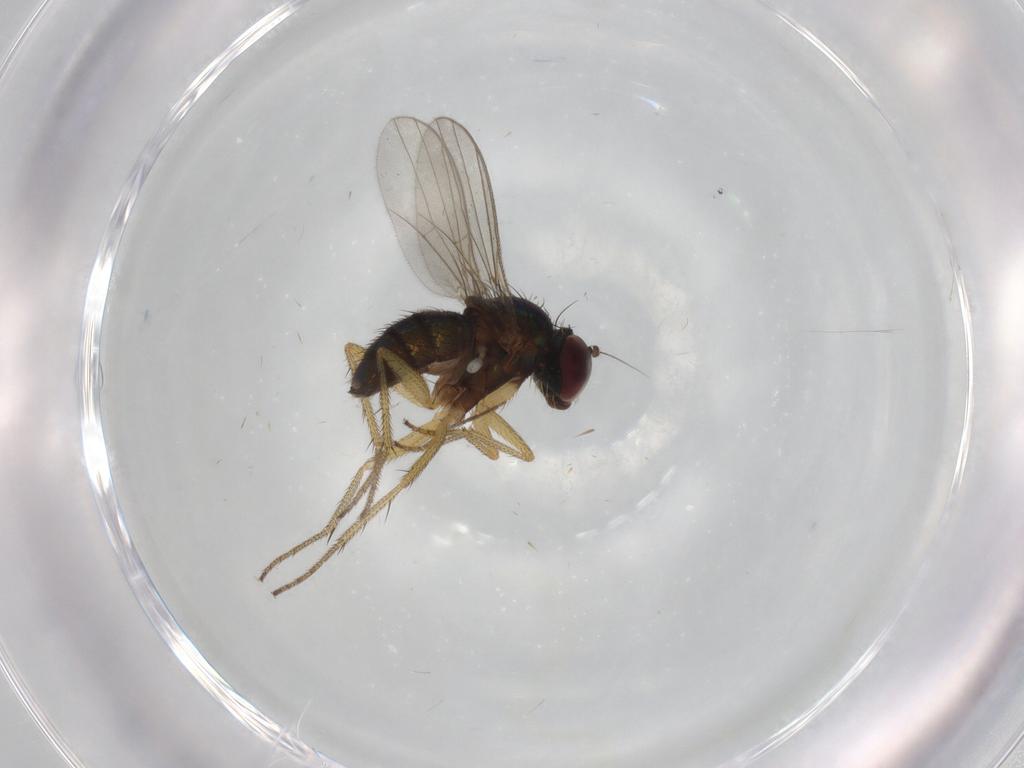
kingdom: Animalia
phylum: Arthropoda
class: Insecta
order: Diptera
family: Dolichopodidae
